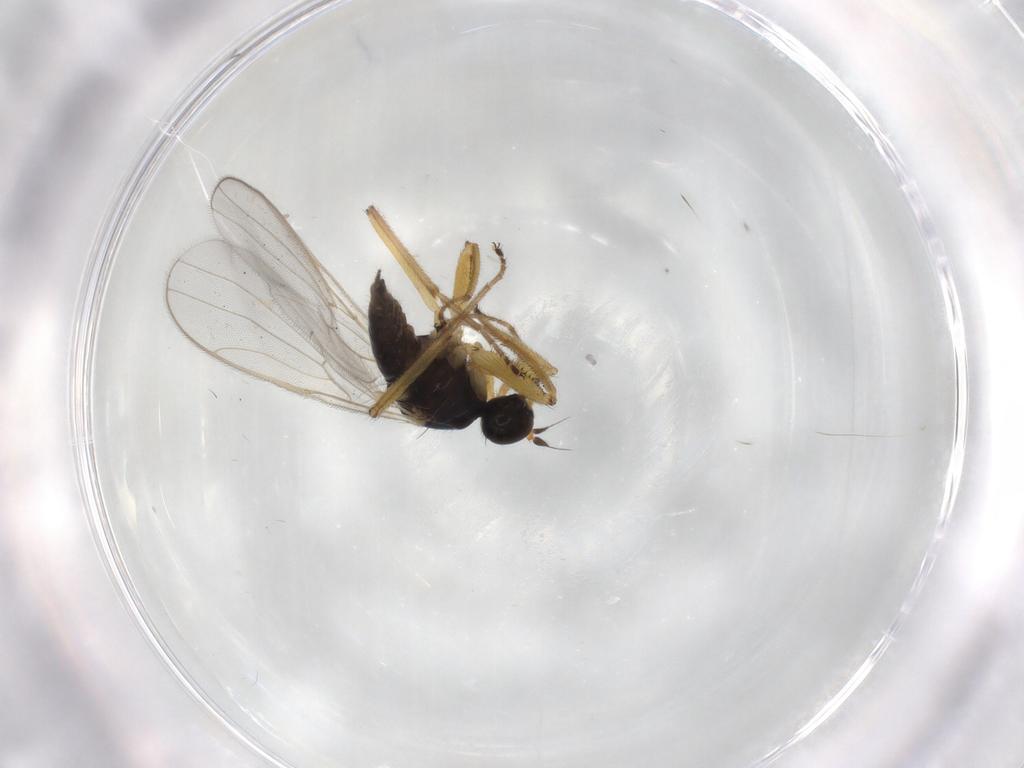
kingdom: Animalia
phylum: Arthropoda
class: Insecta
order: Diptera
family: Hybotidae
